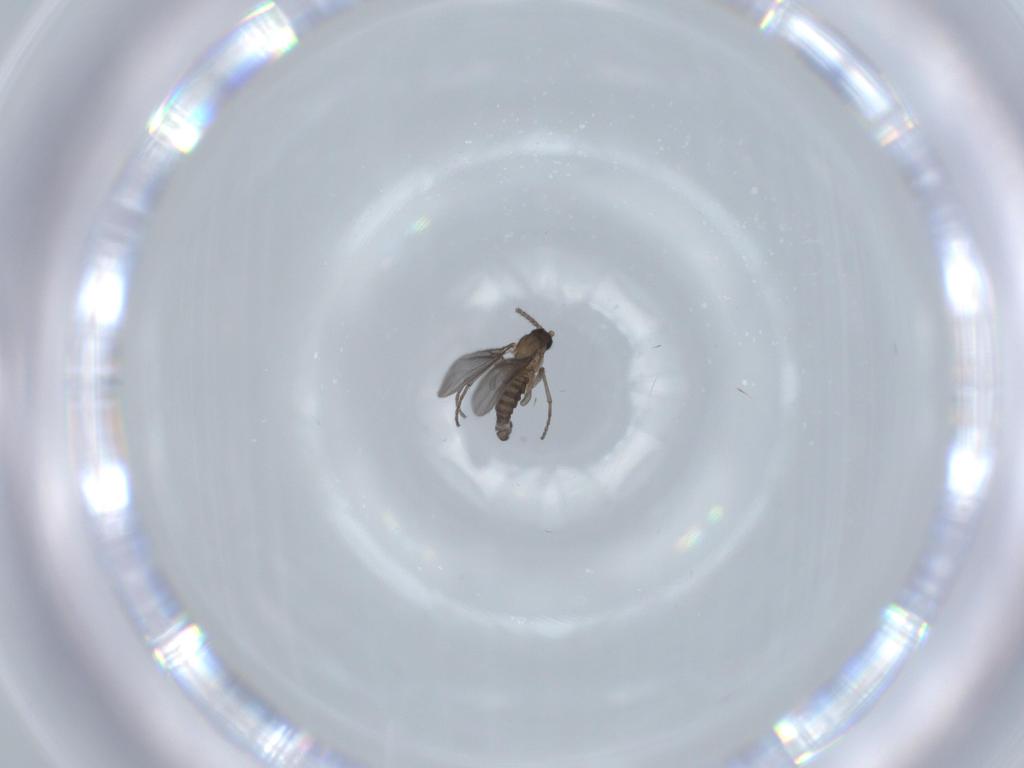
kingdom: Animalia
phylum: Arthropoda
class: Insecta
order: Diptera
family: Sciaridae
